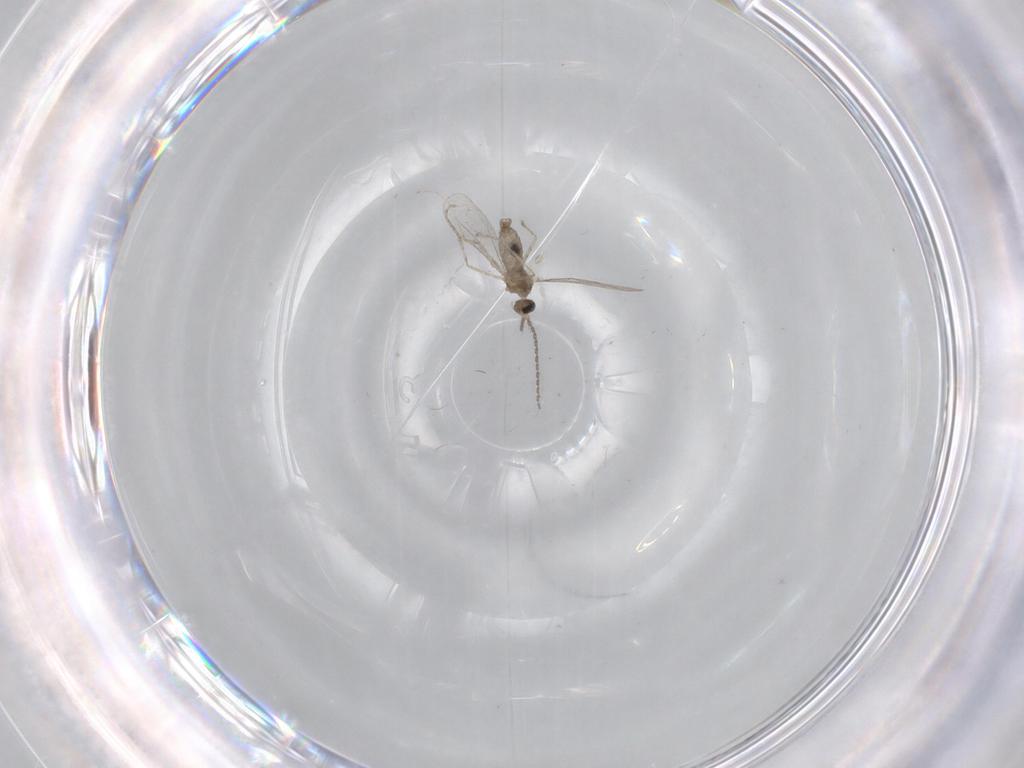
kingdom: Animalia
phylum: Arthropoda
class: Insecta
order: Diptera
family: Cecidomyiidae
